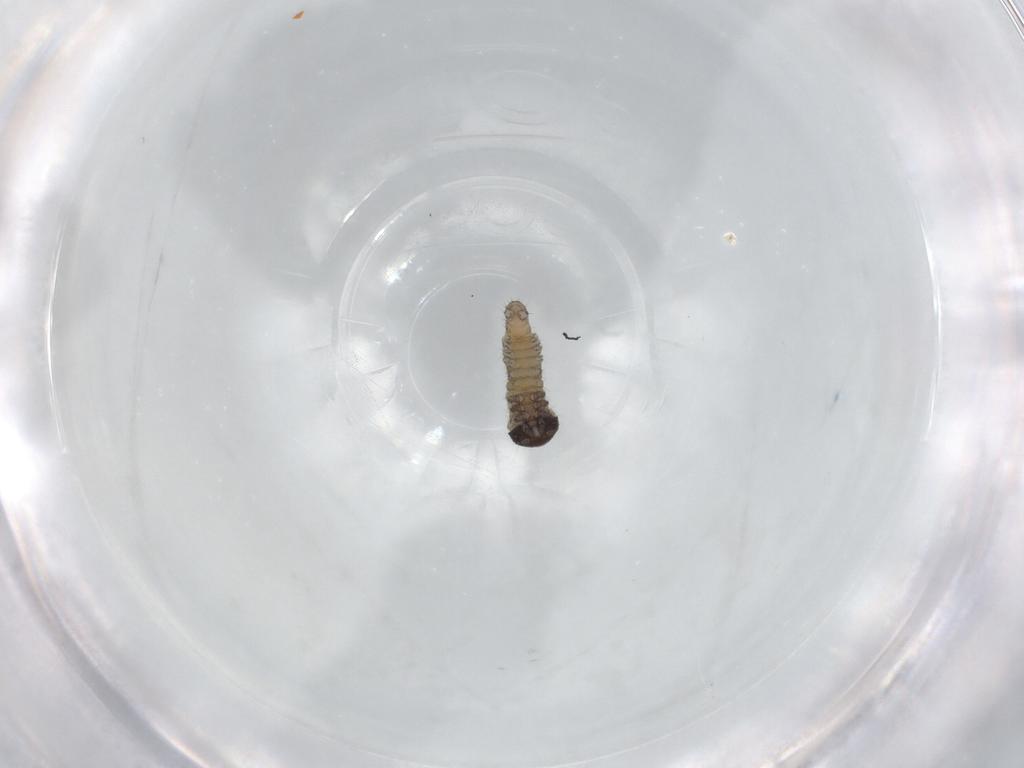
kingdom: Animalia
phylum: Arthropoda
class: Insecta
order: Lepidoptera
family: Noctuidae
